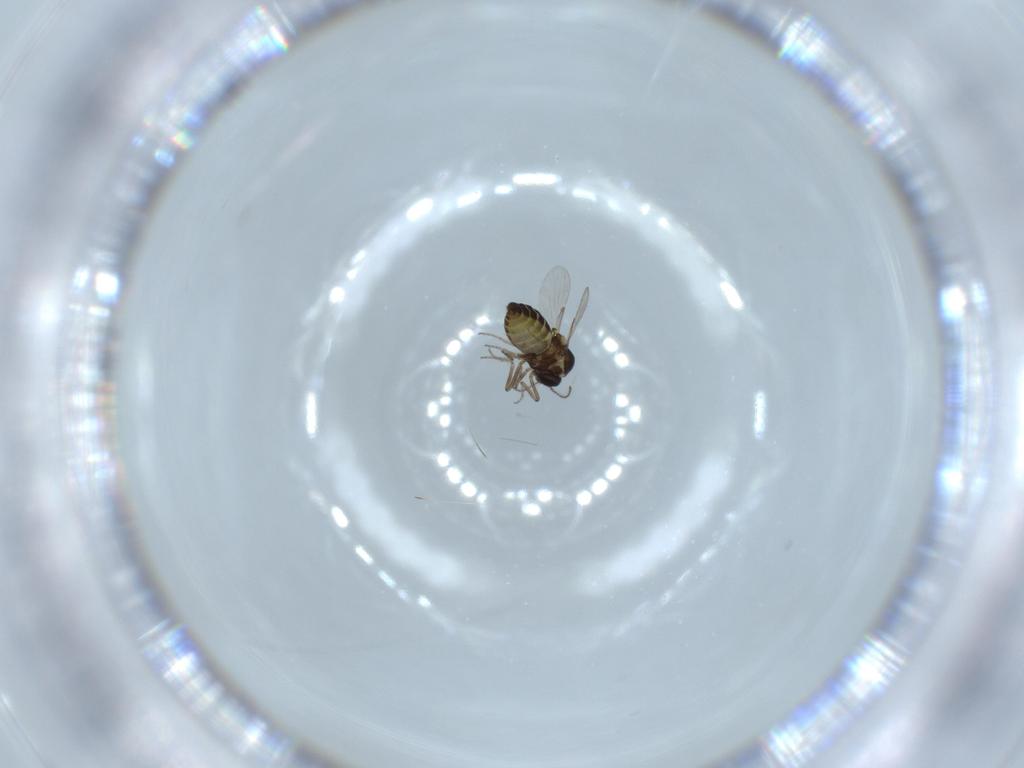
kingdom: Animalia
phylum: Arthropoda
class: Insecta
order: Diptera
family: Ceratopogonidae
